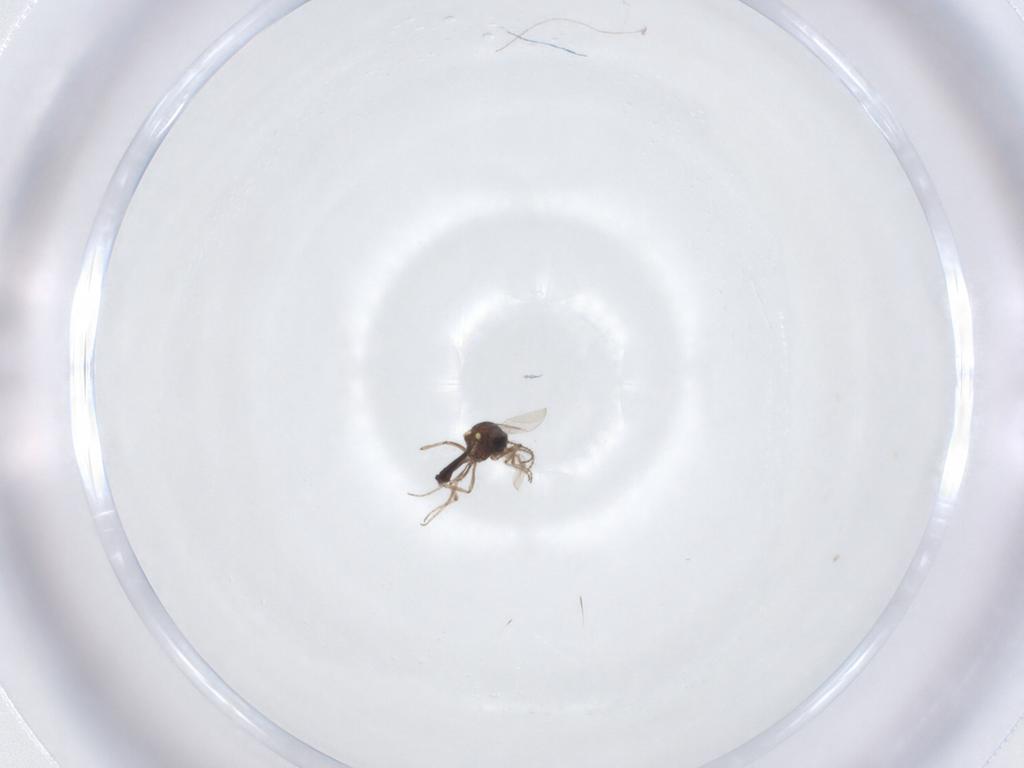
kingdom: Animalia
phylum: Arthropoda
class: Insecta
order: Diptera
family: Ceratopogonidae
